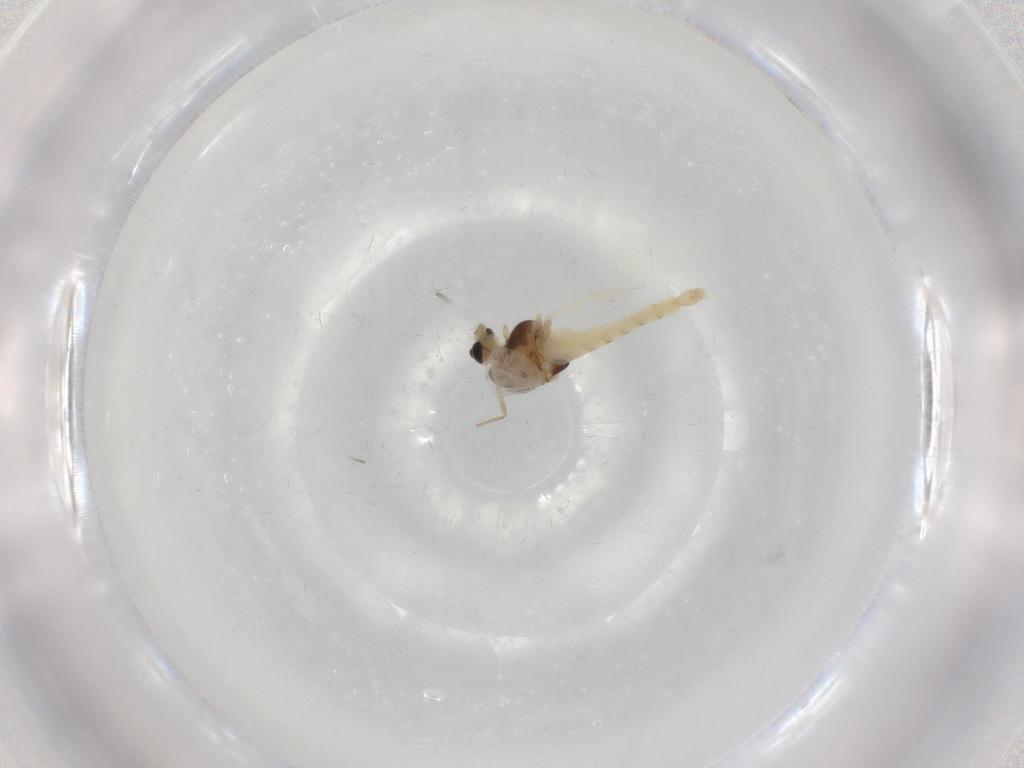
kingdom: Animalia
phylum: Arthropoda
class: Insecta
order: Diptera
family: Chironomidae
